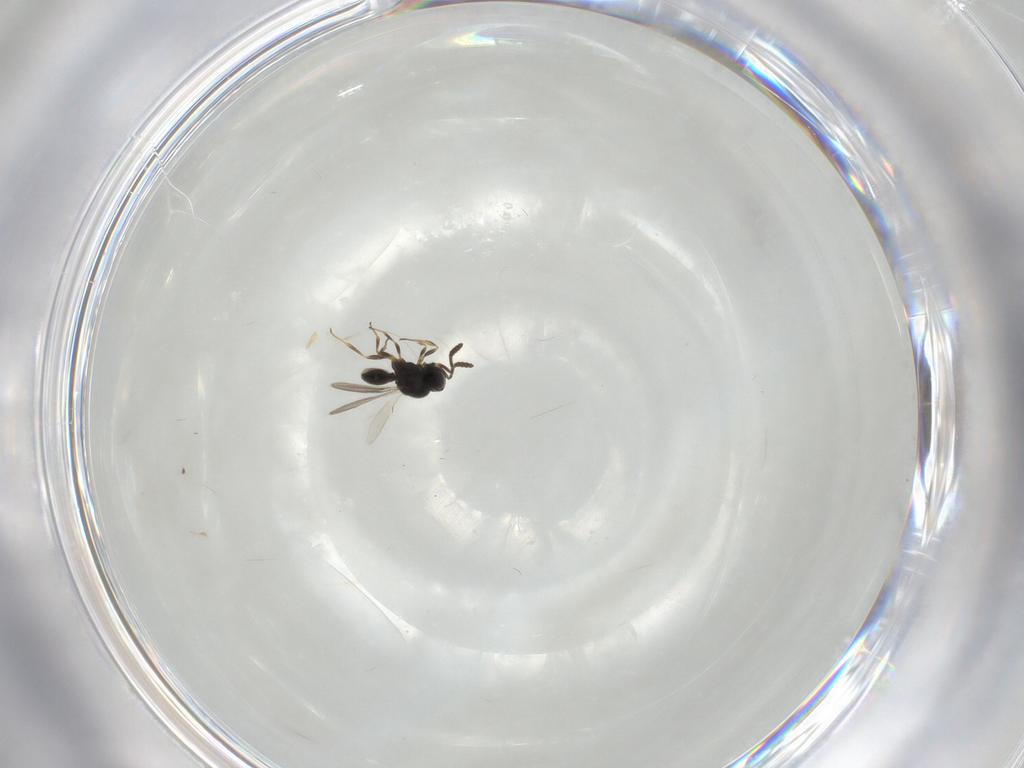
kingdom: Animalia
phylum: Arthropoda
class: Insecta
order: Hymenoptera
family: Scelionidae
